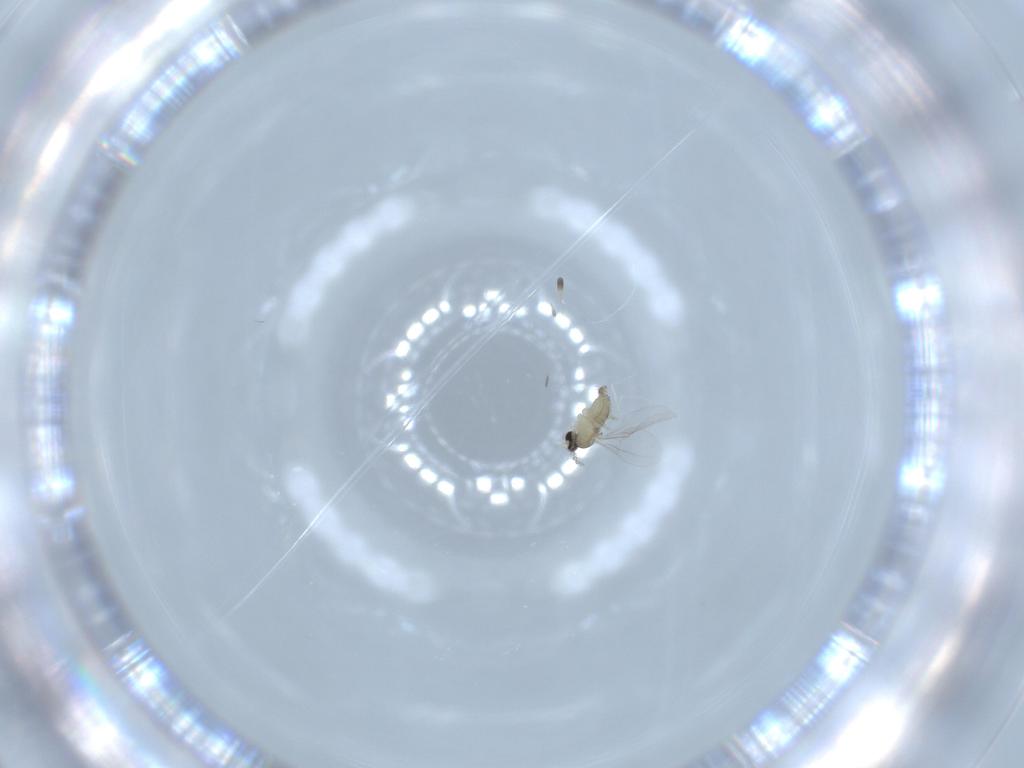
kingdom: Animalia
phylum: Arthropoda
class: Insecta
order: Diptera
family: Cecidomyiidae
